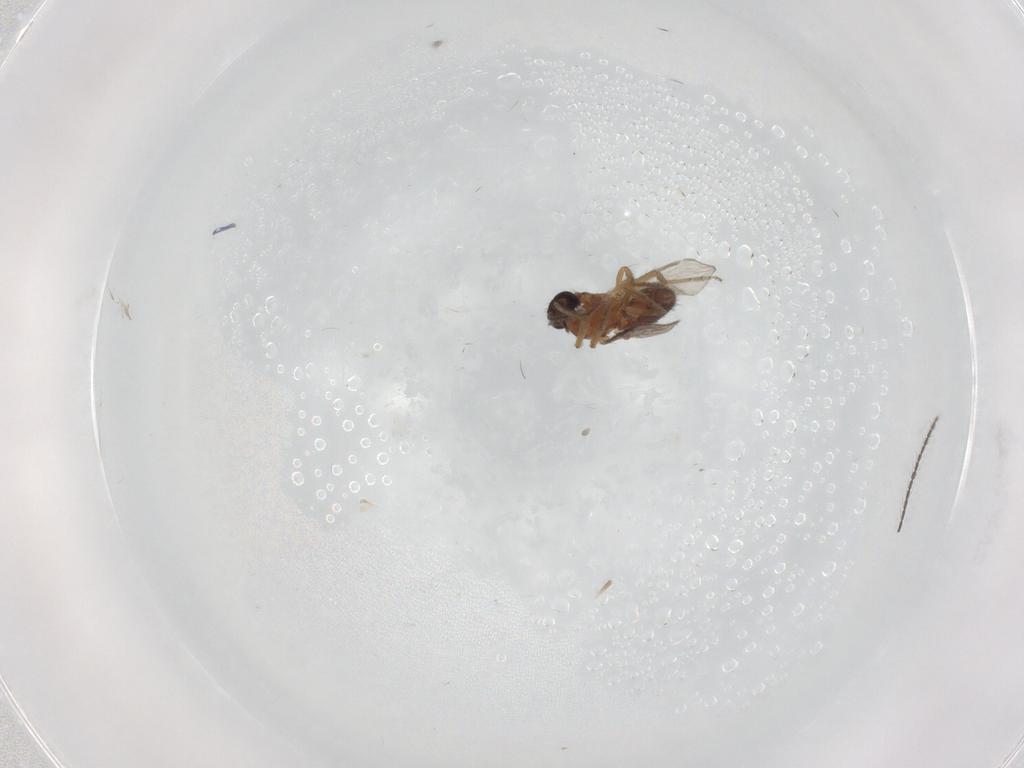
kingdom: Animalia
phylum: Arthropoda
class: Insecta
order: Diptera
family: Ceratopogonidae
